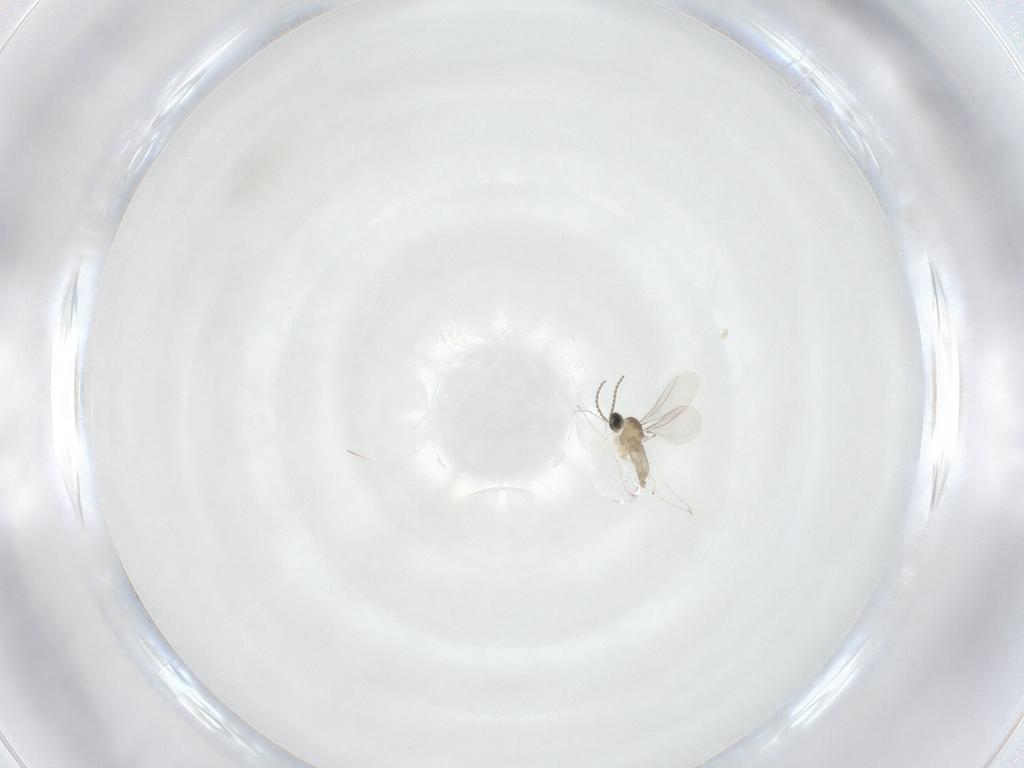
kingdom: Animalia
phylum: Arthropoda
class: Insecta
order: Diptera
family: Cecidomyiidae
